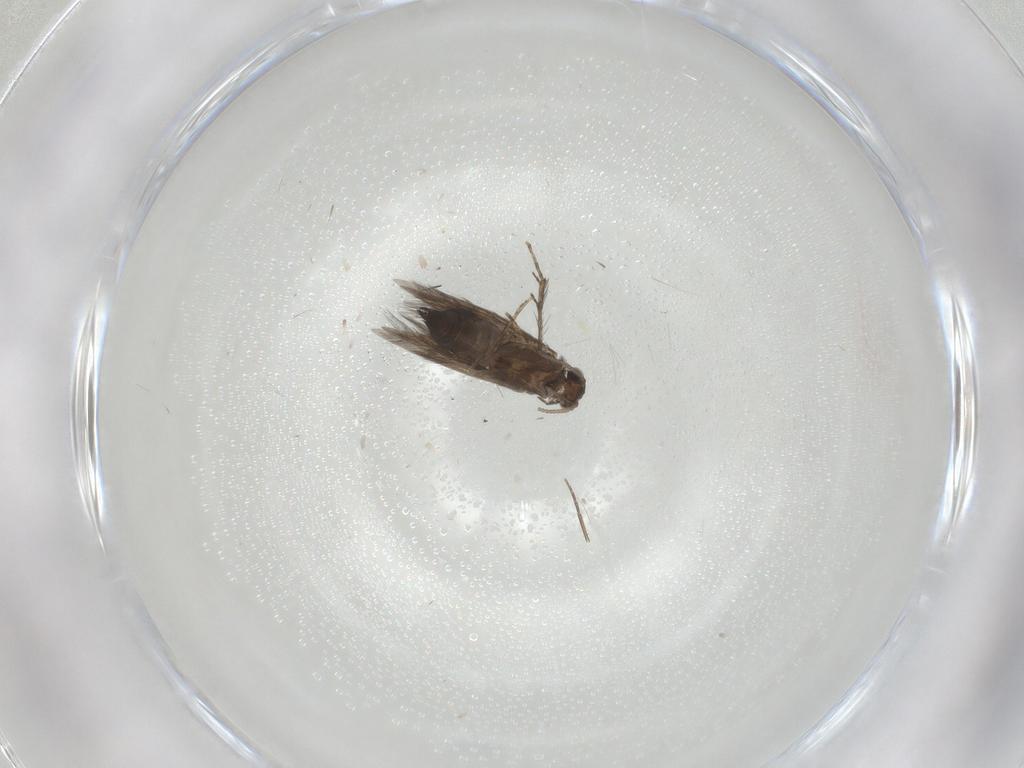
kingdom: Animalia
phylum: Arthropoda
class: Insecta
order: Trichoptera
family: Hydroptilidae
